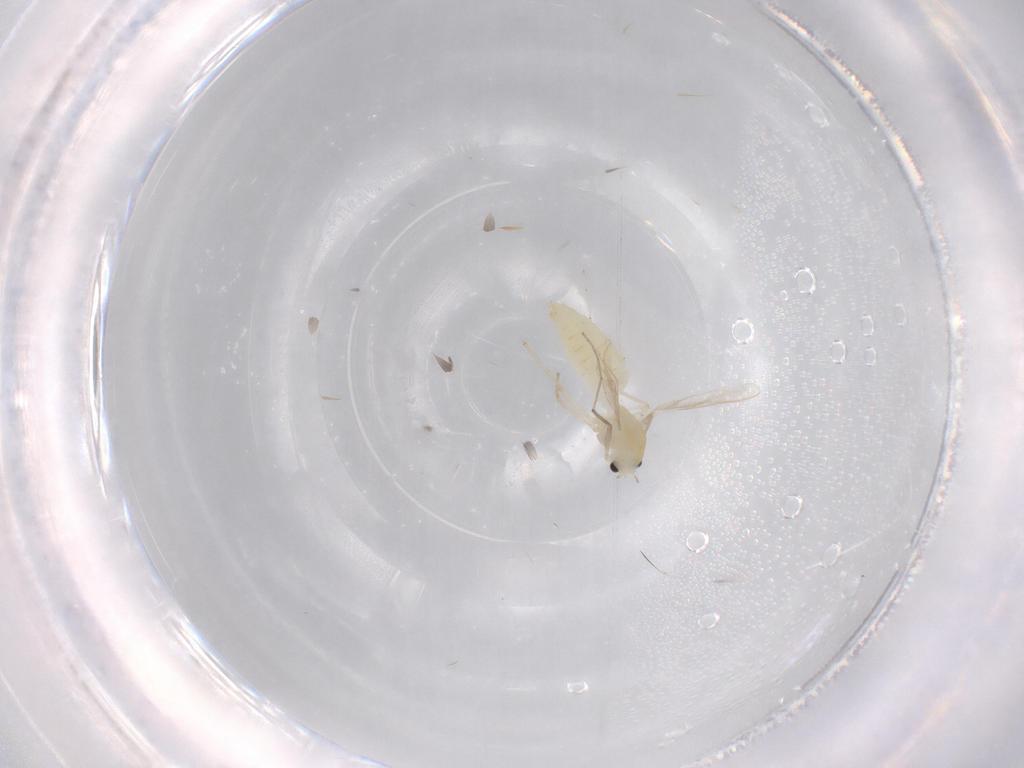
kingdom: Animalia
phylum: Arthropoda
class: Insecta
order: Diptera
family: Chironomidae
